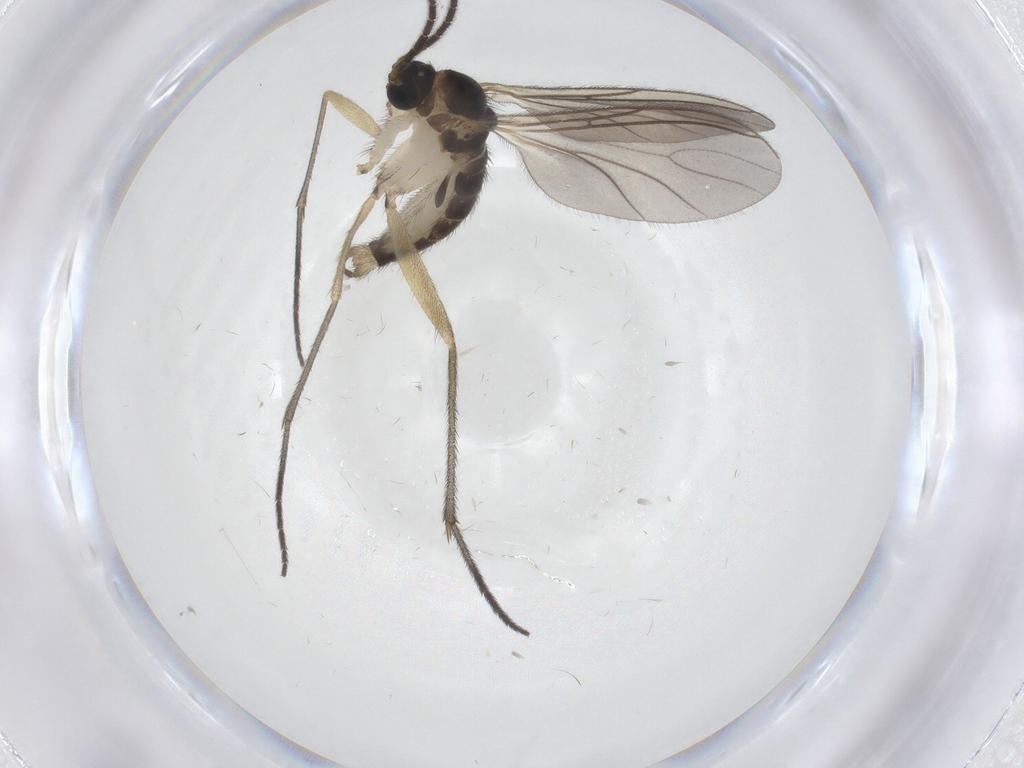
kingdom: Animalia
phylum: Arthropoda
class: Insecta
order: Diptera
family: Sciaridae
